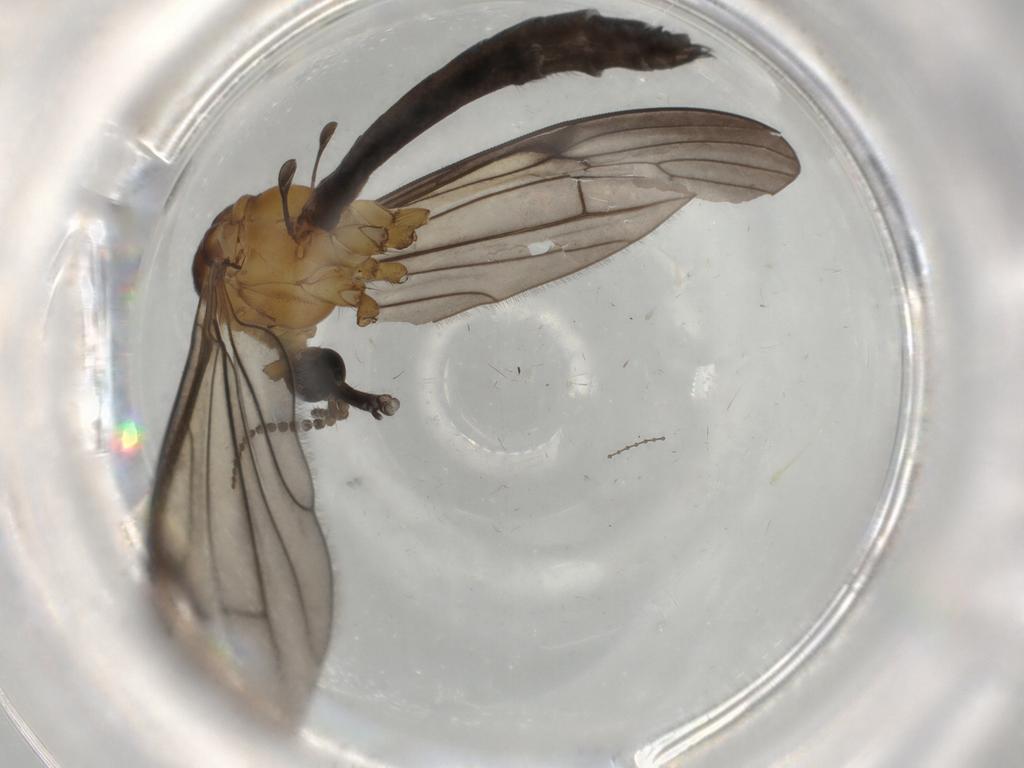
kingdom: Animalia
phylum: Arthropoda
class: Insecta
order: Diptera
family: Limoniidae
